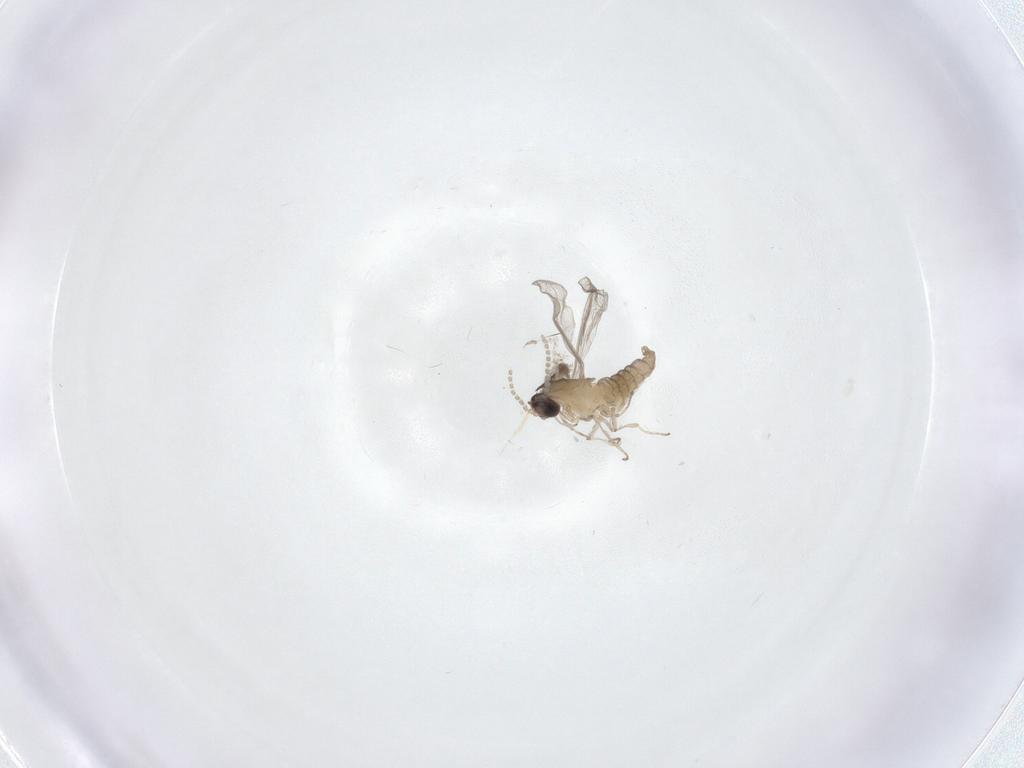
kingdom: Animalia
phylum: Arthropoda
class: Insecta
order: Diptera
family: Cecidomyiidae
